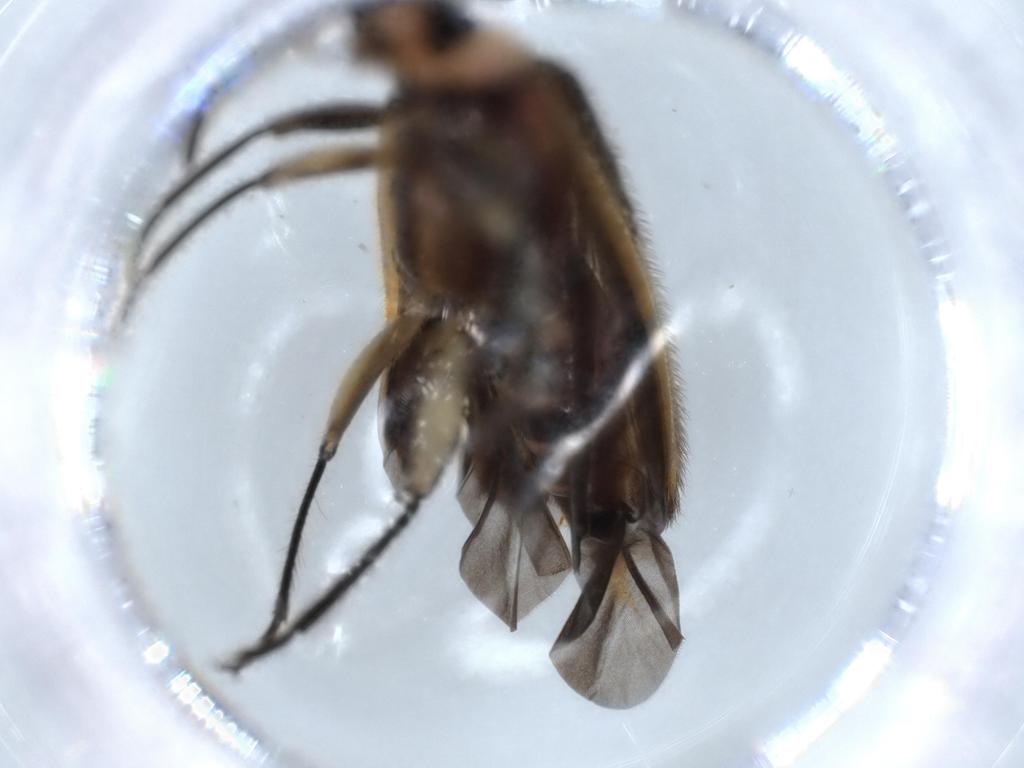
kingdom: Animalia
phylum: Arthropoda
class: Insecta
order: Coleoptera
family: Cleridae
